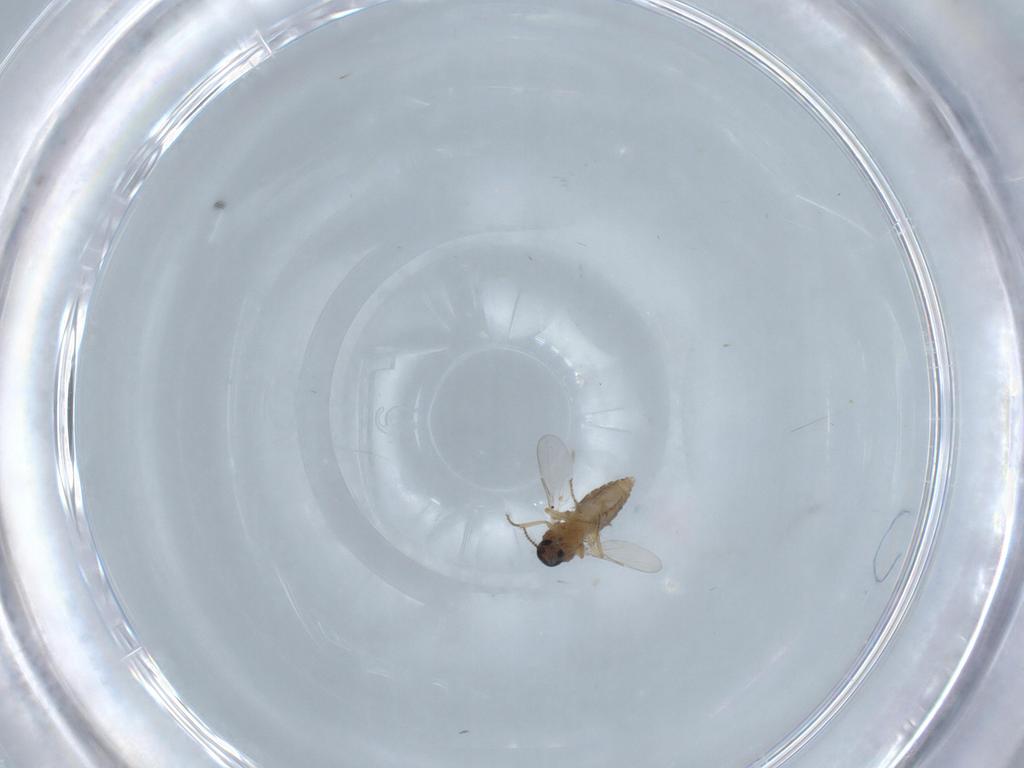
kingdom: Animalia
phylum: Arthropoda
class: Insecta
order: Diptera
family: Ceratopogonidae
